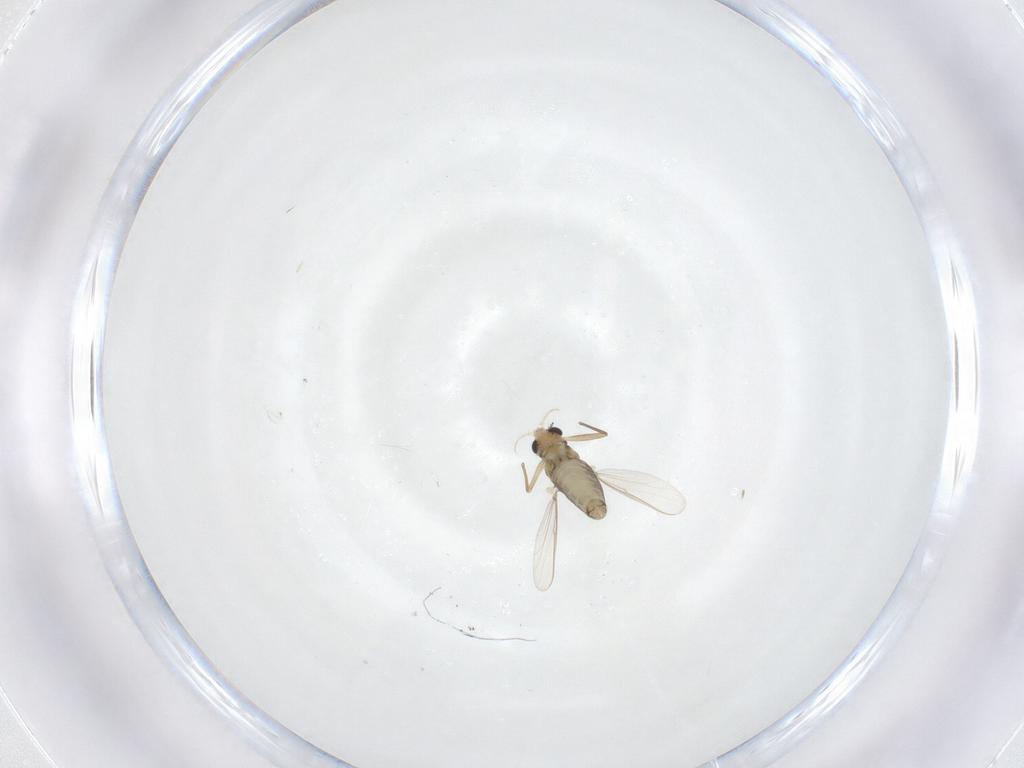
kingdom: Animalia
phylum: Arthropoda
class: Insecta
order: Diptera
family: Chironomidae
